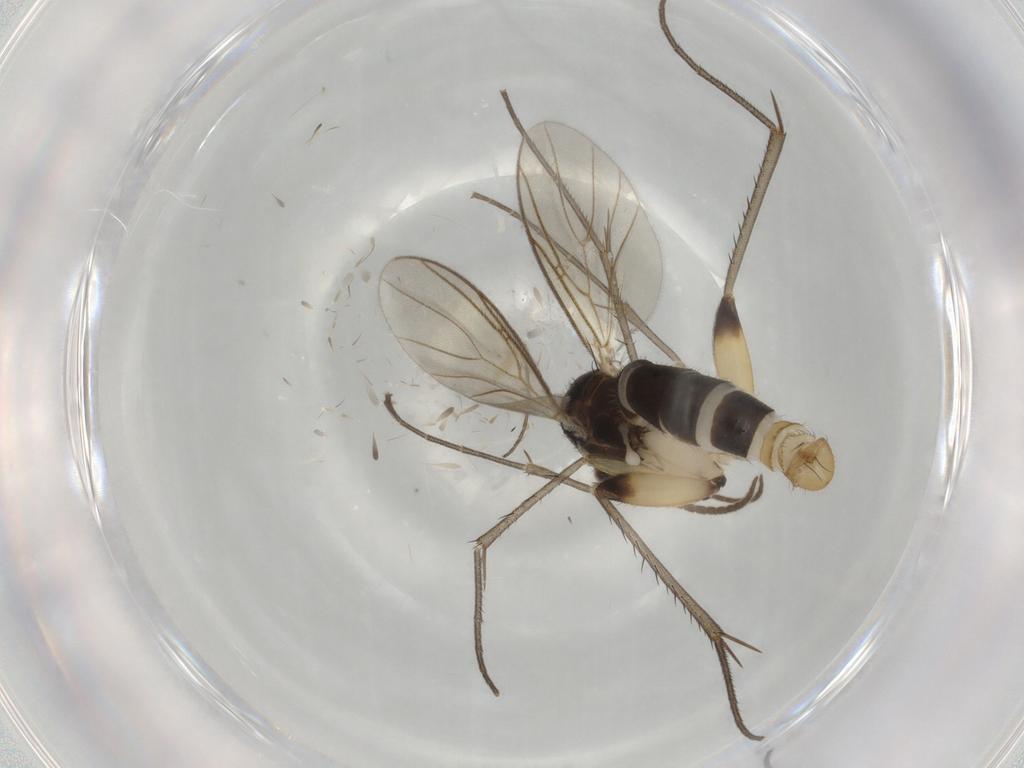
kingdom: Animalia
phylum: Arthropoda
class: Insecta
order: Diptera
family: Mycetophilidae
